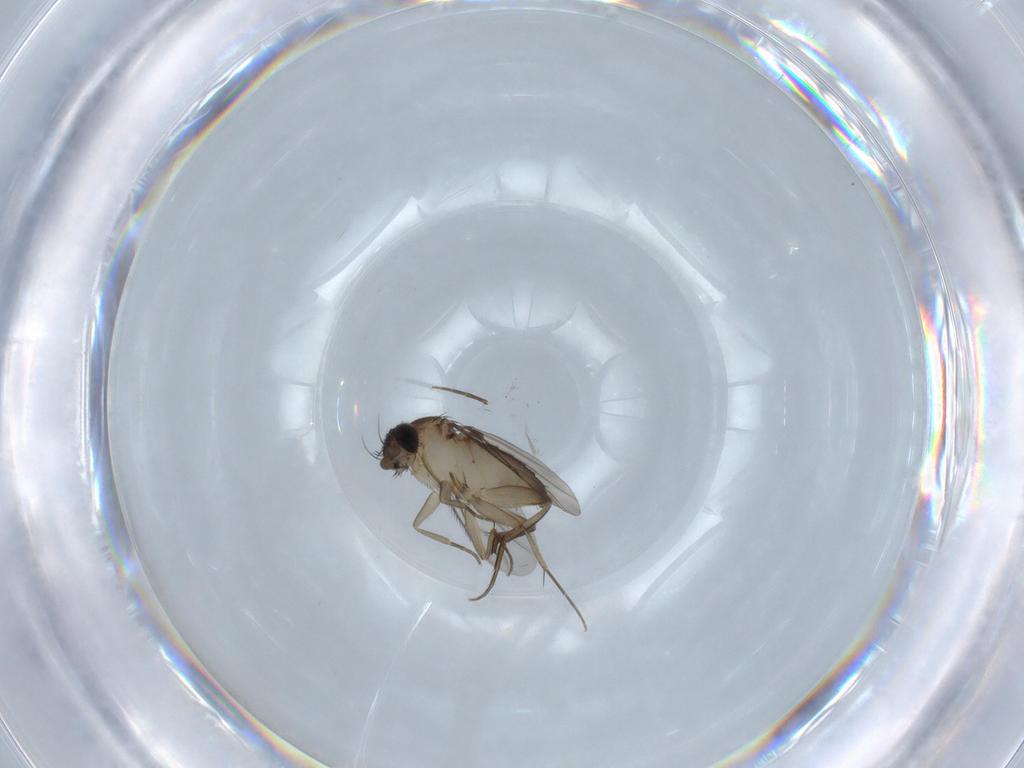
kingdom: Animalia
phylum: Arthropoda
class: Insecta
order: Diptera
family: Phoridae
